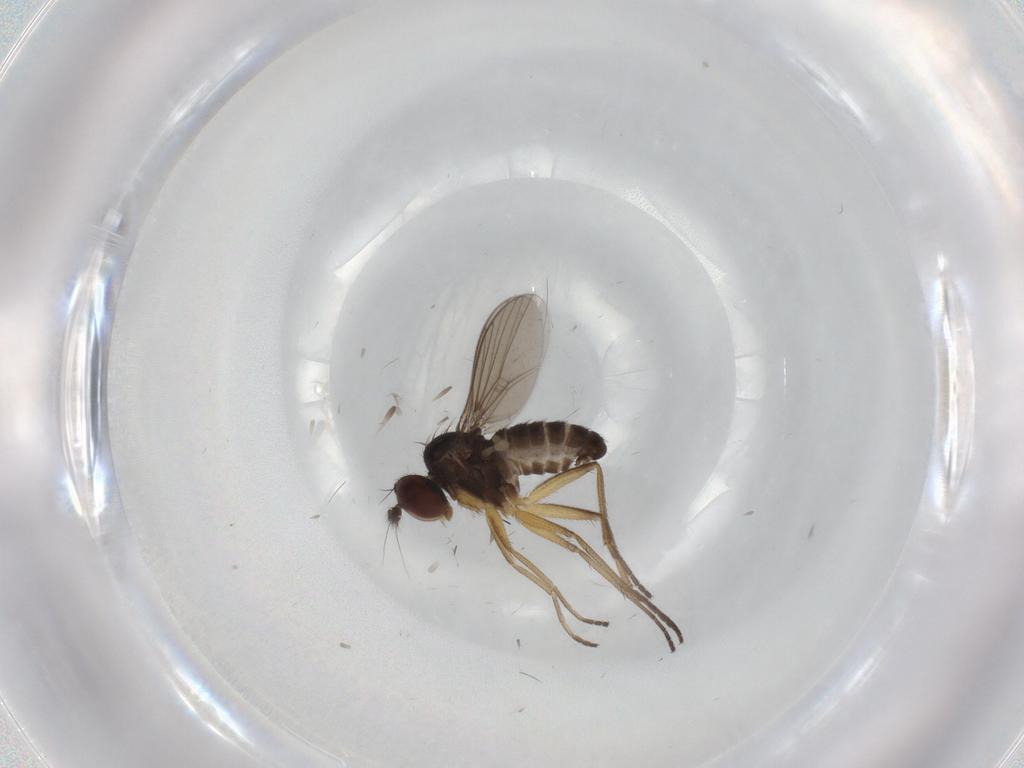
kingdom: Animalia
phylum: Arthropoda
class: Insecta
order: Diptera
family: Dolichopodidae
